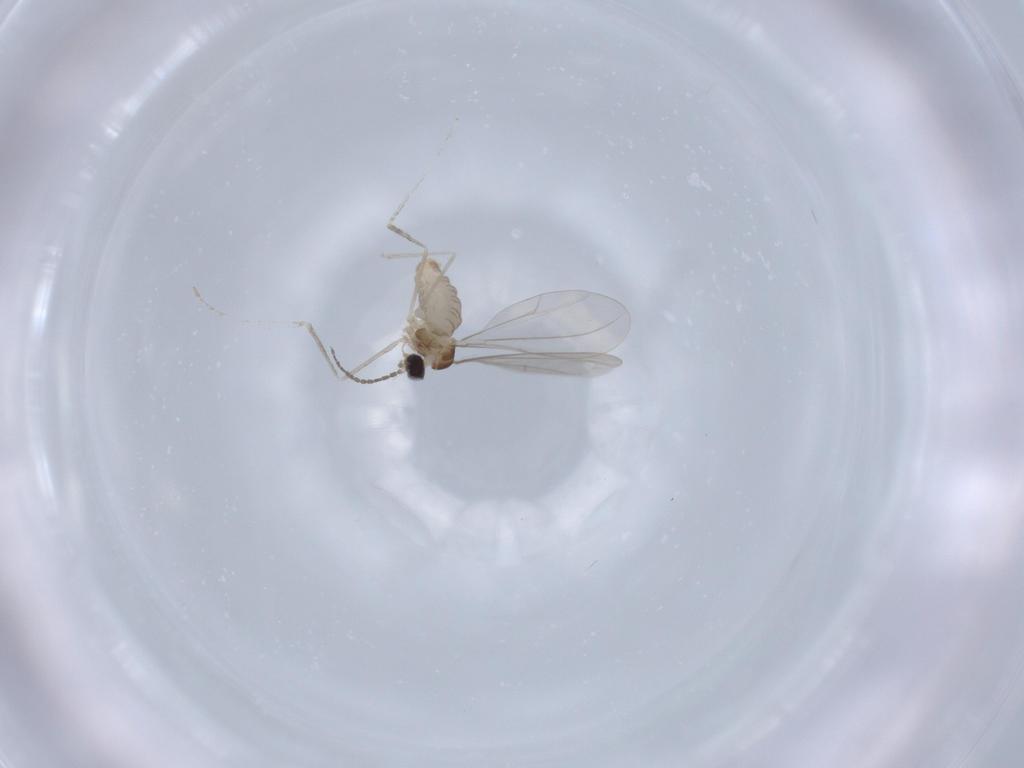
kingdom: Animalia
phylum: Arthropoda
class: Insecta
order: Diptera
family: Cecidomyiidae
